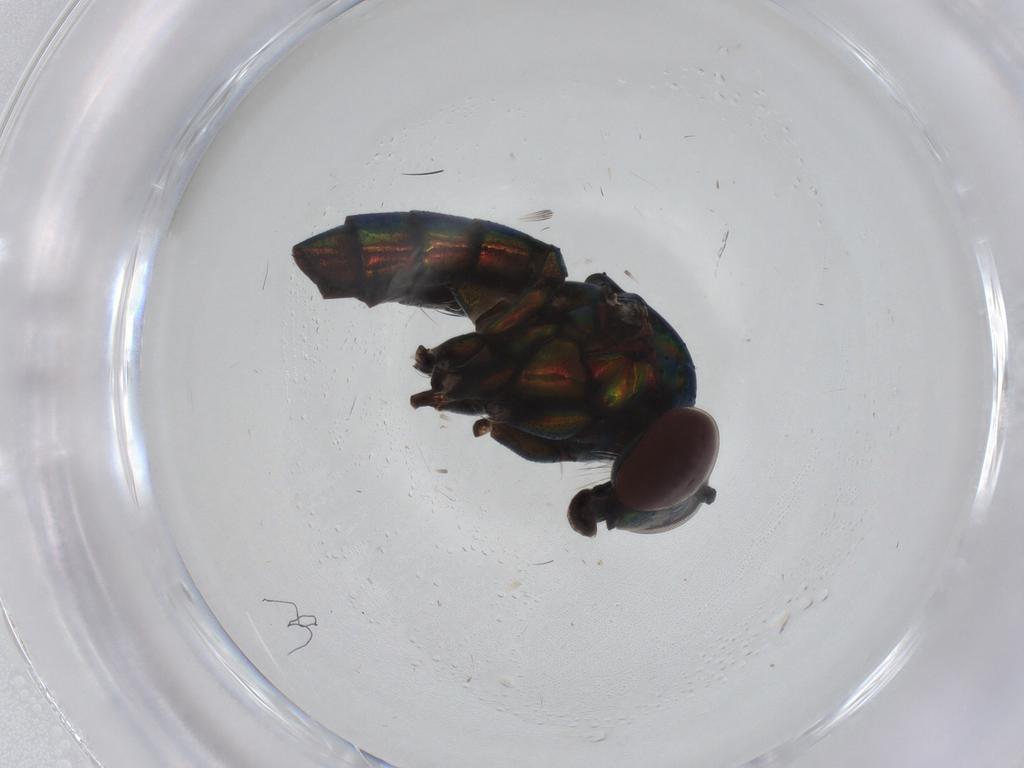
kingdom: Animalia
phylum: Arthropoda
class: Insecta
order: Diptera
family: Dolichopodidae
